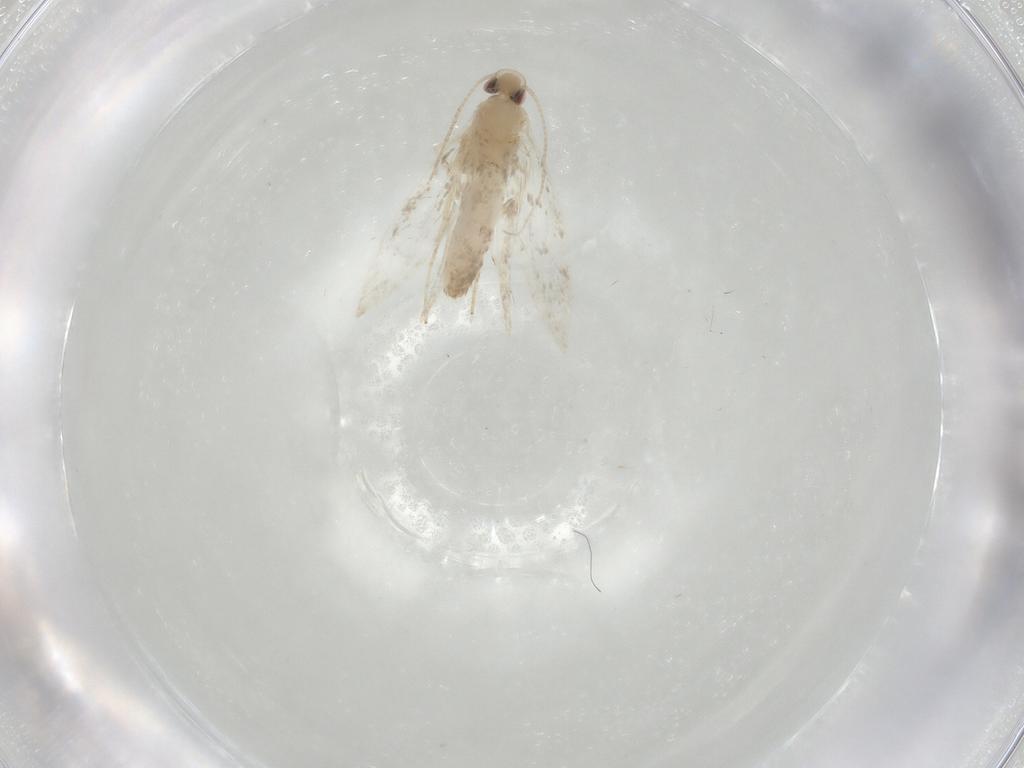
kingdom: Animalia
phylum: Arthropoda
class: Insecta
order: Lepidoptera
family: Gracillariidae
